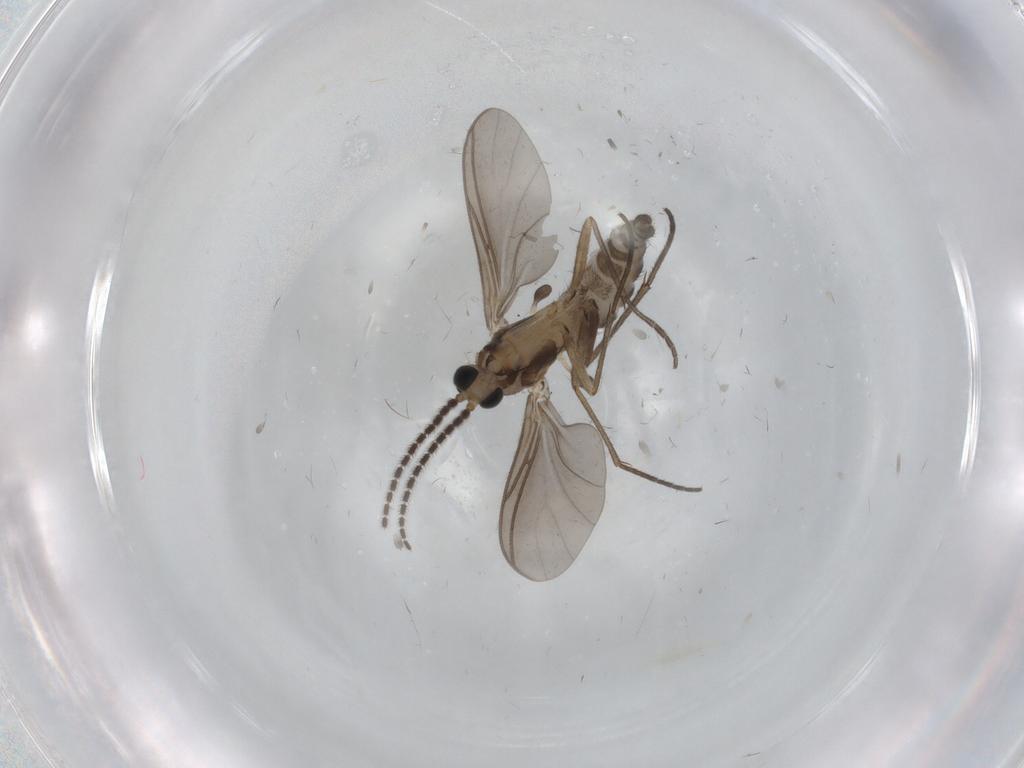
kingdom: Animalia
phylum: Arthropoda
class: Insecta
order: Diptera
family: Sciaridae
